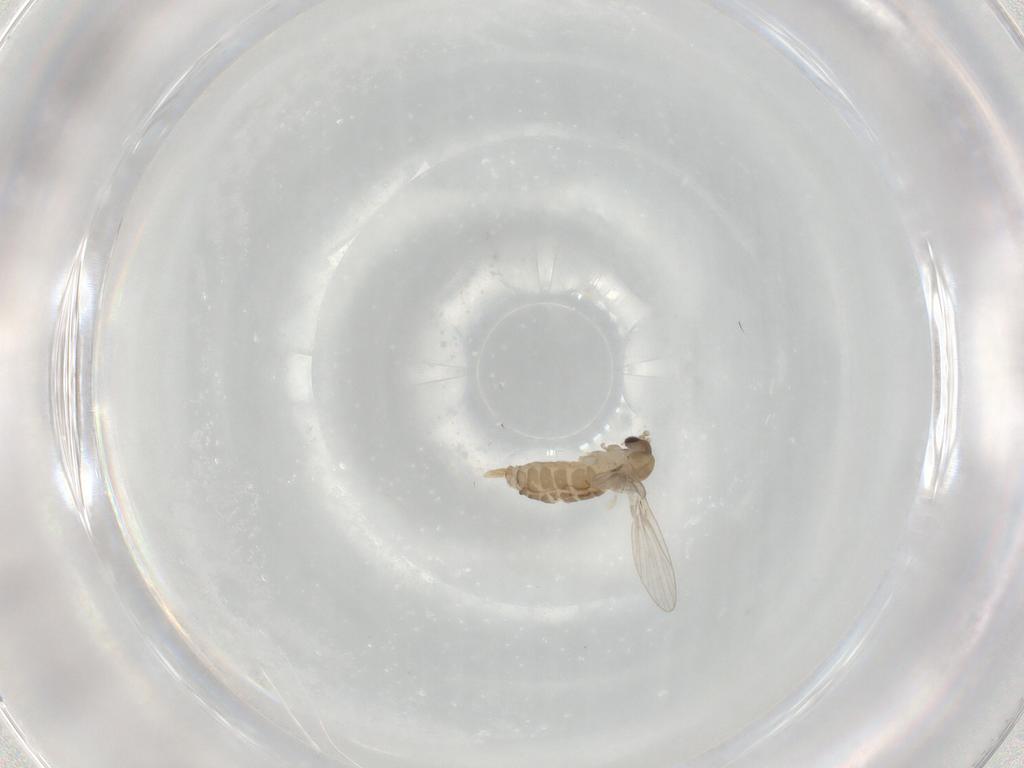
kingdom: Animalia
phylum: Arthropoda
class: Insecta
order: Diptera
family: Psychodidae
